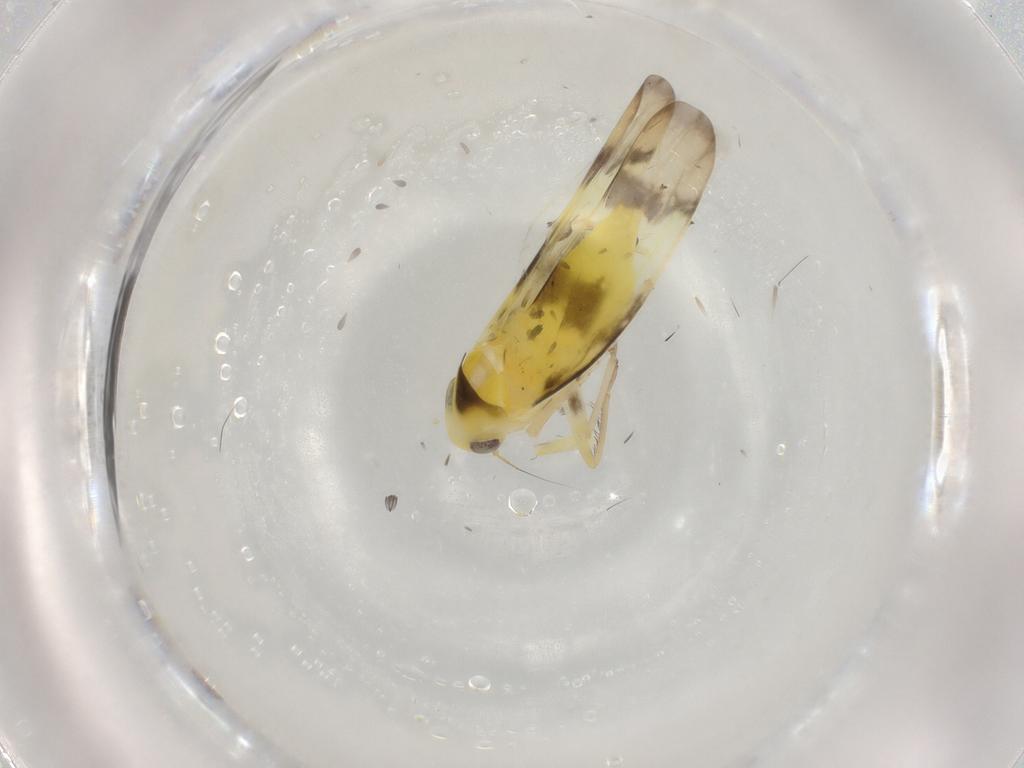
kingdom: Animalia
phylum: Arthropoda
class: Insecta
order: Hemiptera
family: Cicadellidae
